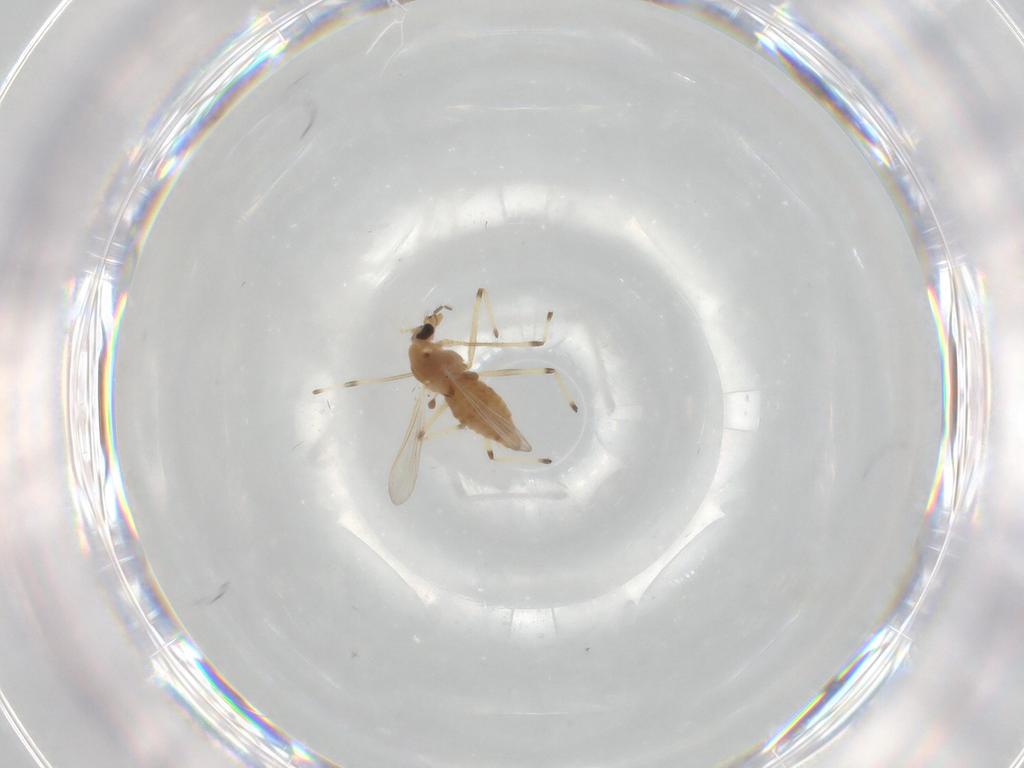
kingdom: Animalia
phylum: Arthropoda
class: Insecta
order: Diptera
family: Chironomidae
